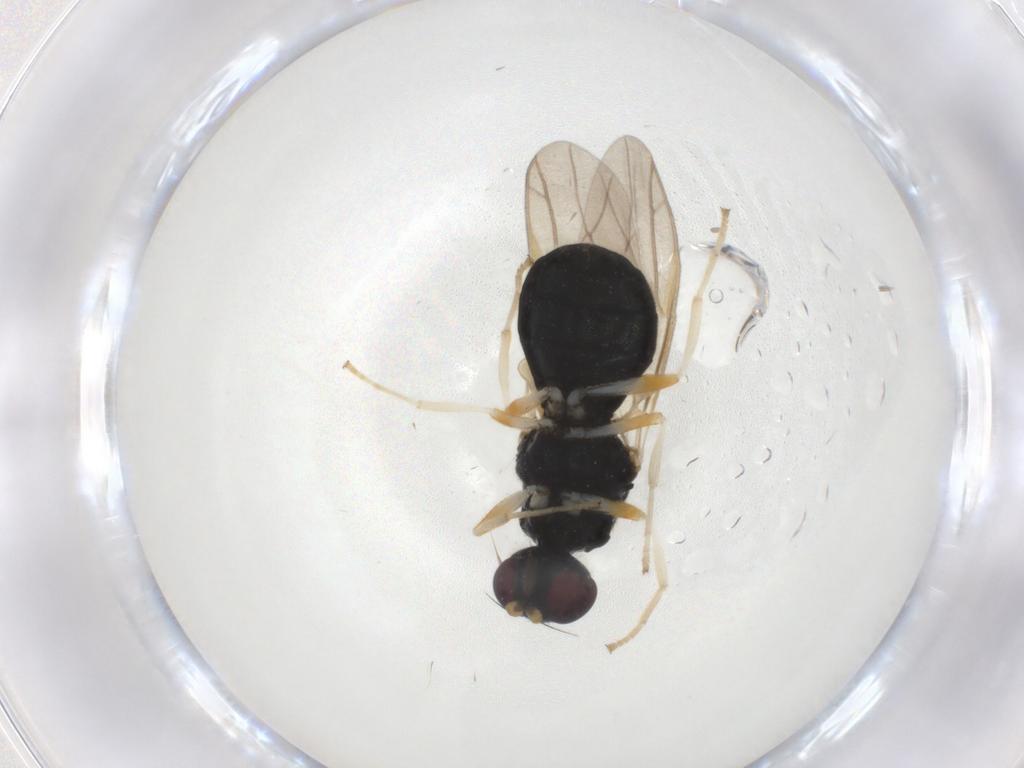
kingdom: Animalia
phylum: Arthropoda
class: Insecta
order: Diptera
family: Stratiomyidae
